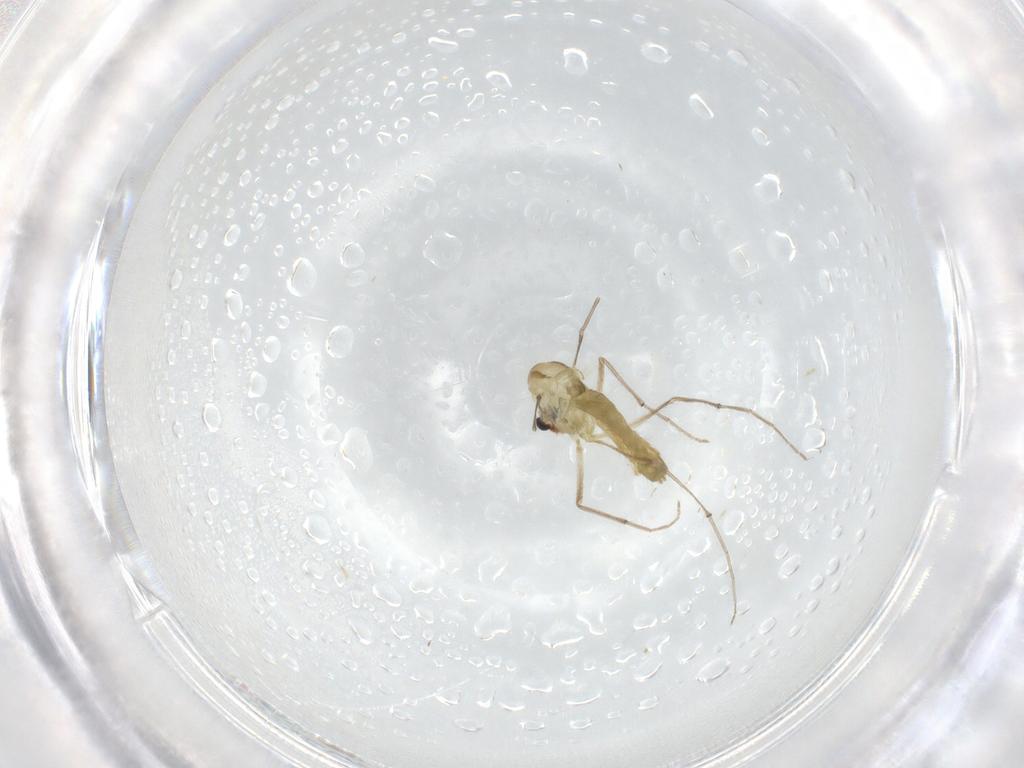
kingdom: Animalia
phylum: Arthropoda
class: Insecta
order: Diptera
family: Chironomidae
